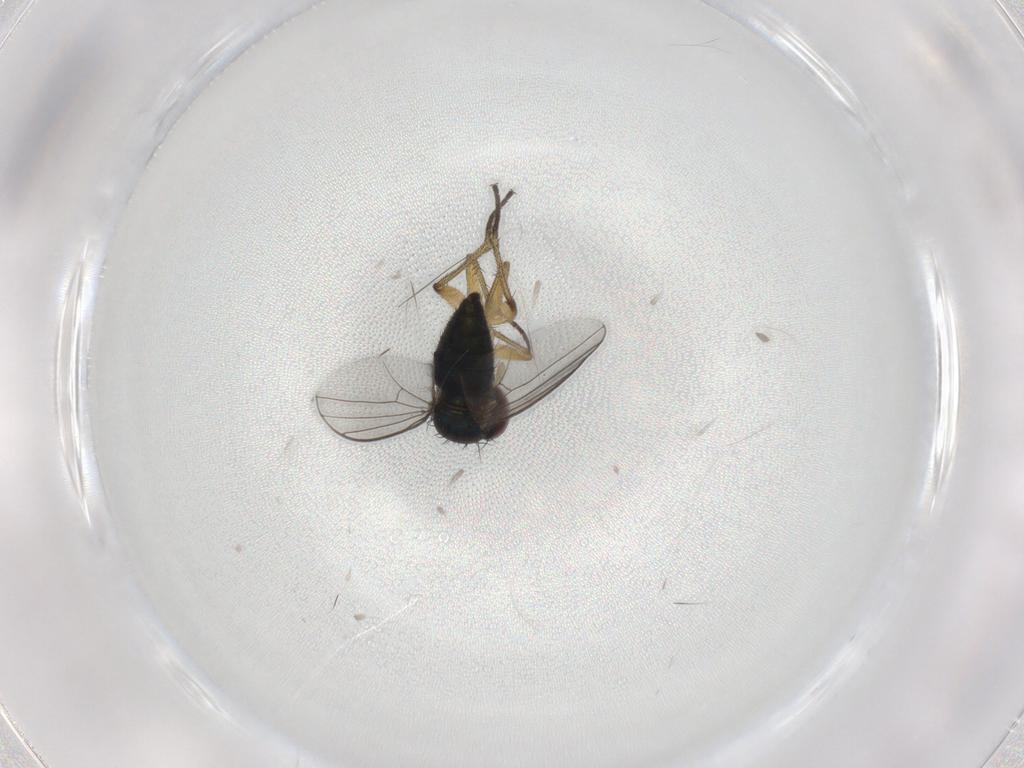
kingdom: Animalia
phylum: Arthropoda
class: Insecta
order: Diptera
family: Dolichopodidae
